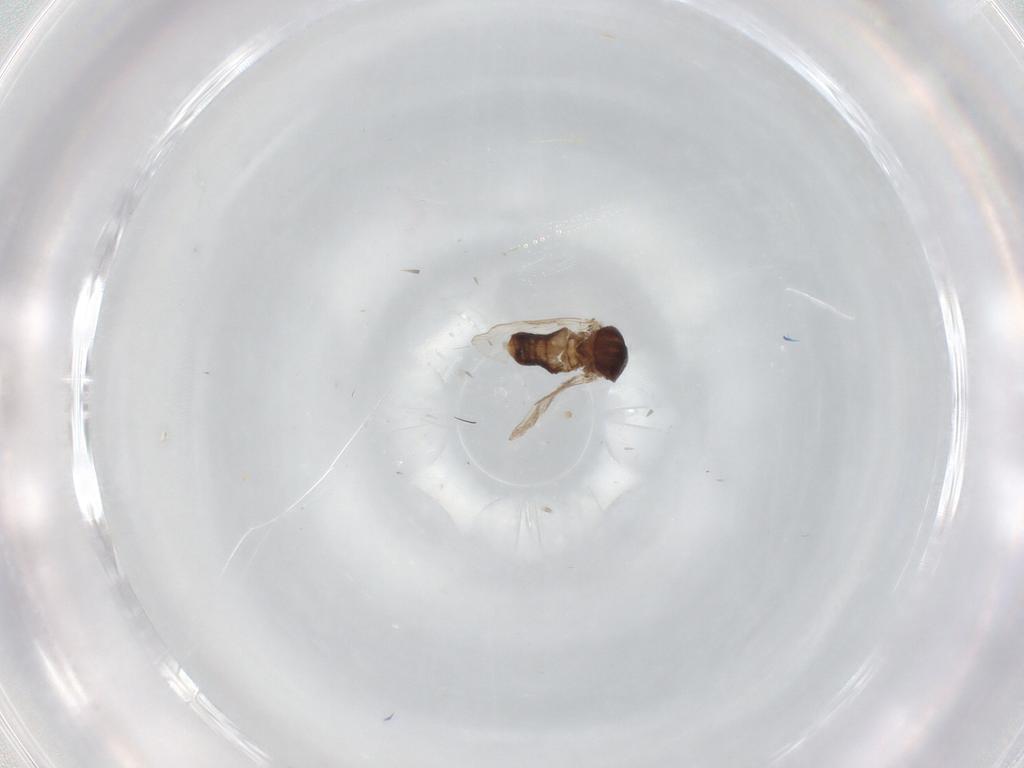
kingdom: Animalia
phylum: Arthropoda
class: Insecta
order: Diptera
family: Ceratopogonidae
